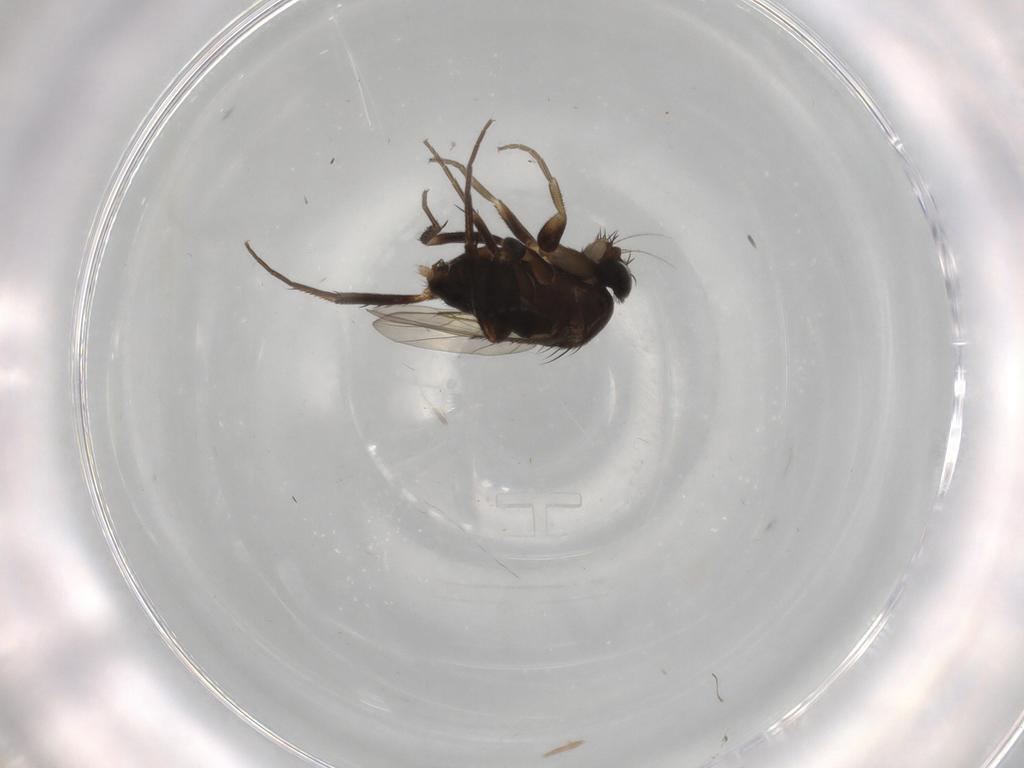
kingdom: Animalia
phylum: Arthropoda
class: Insecta
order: Diptera
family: Phoridae
